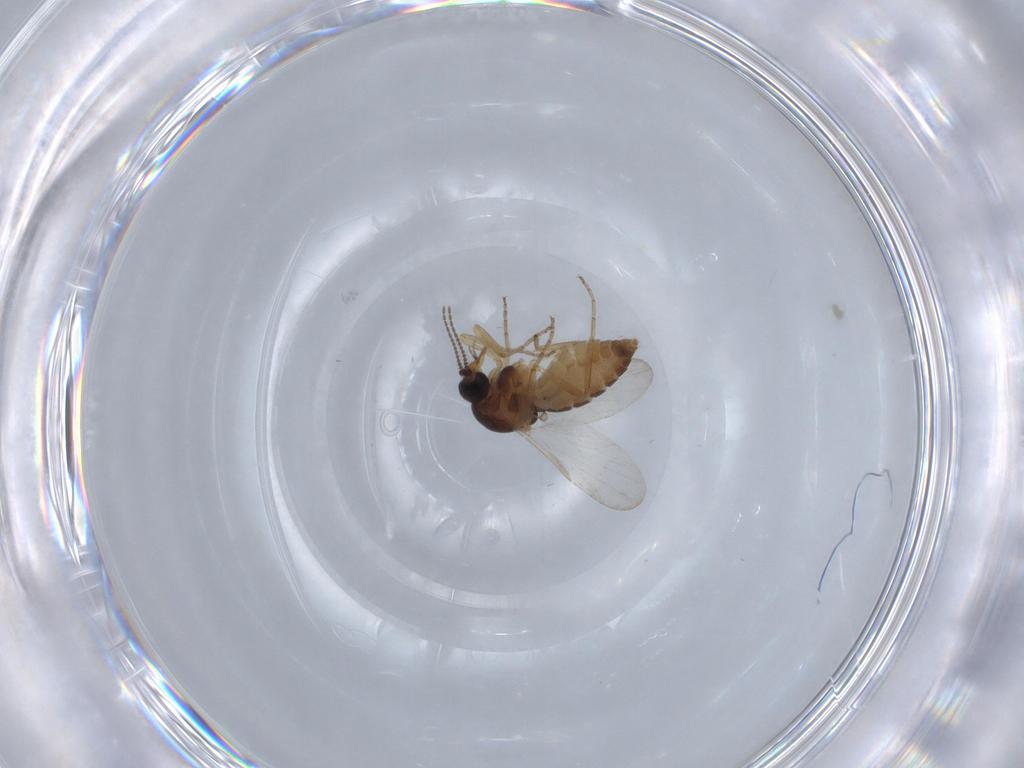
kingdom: Animalia
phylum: Arthropoda
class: Insecta
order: Diptera
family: Ceratopogonidae
